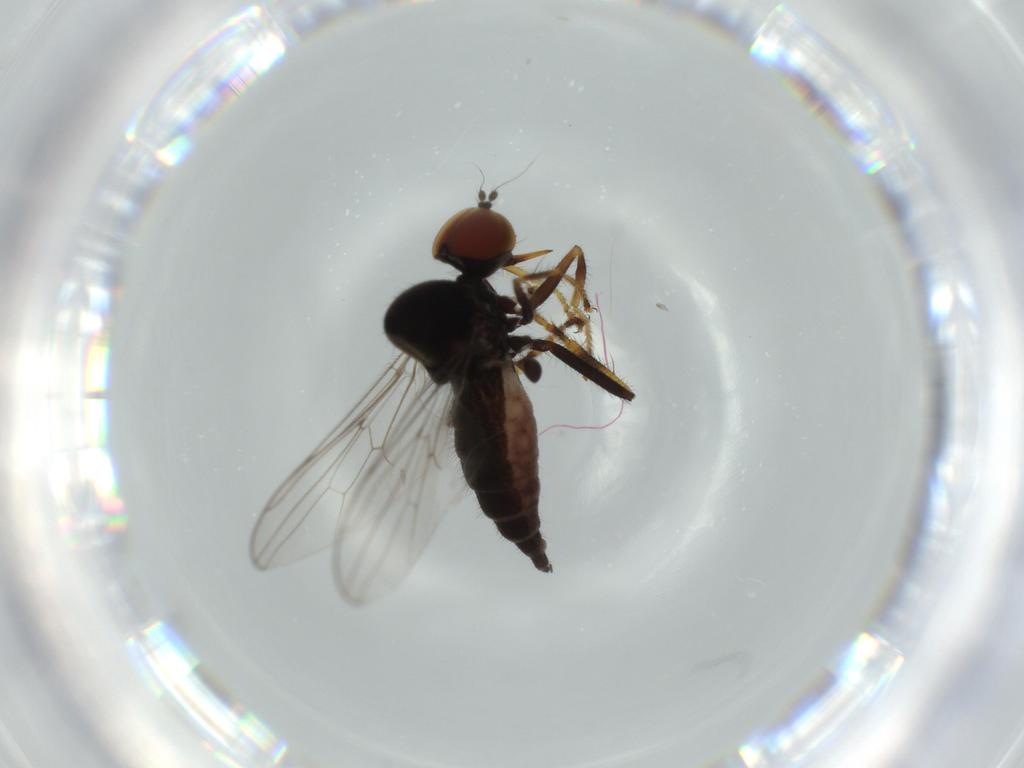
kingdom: Animalia
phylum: Arthropoda
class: Insecta
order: Diptera
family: Hybotidae
